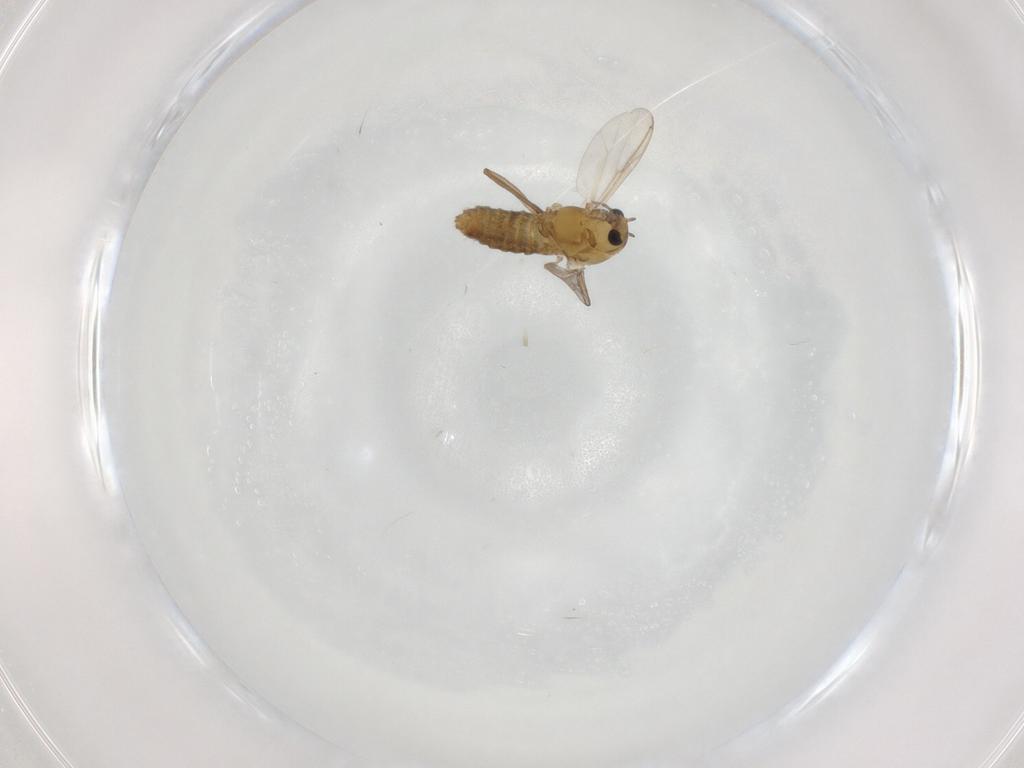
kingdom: Animalia
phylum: Arthropoda
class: Insecta
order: Diptera
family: Chironomidae
